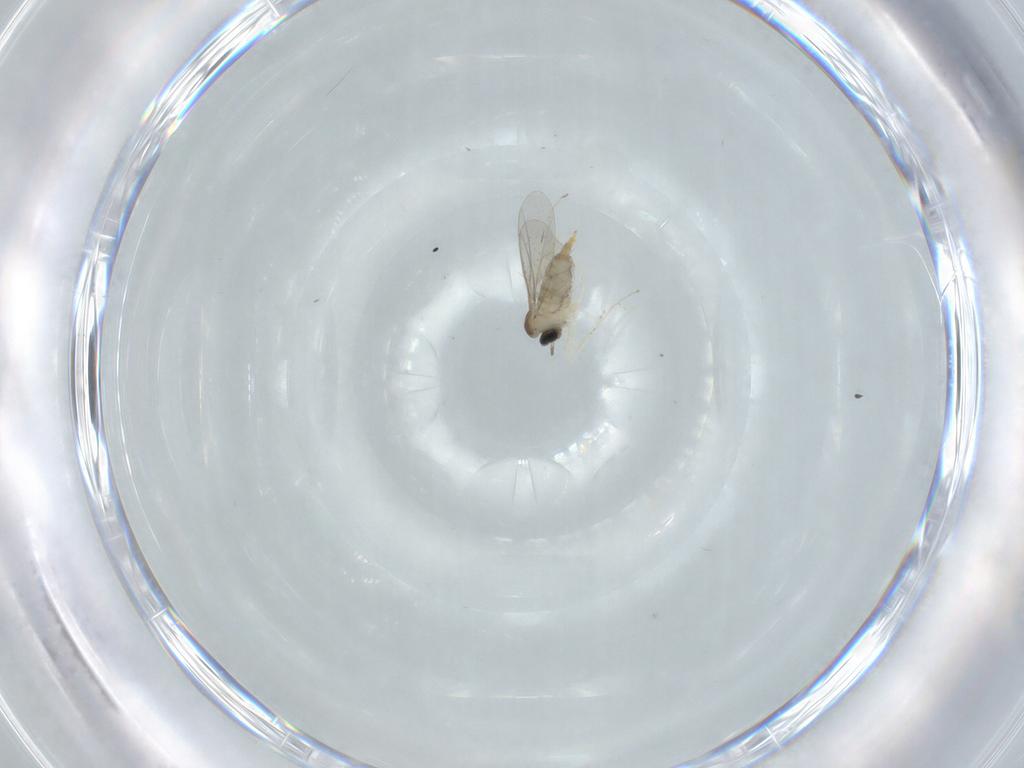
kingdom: Animalia
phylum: Arthropoda
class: Insecta
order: Diptera
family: Cecidomyiidae
